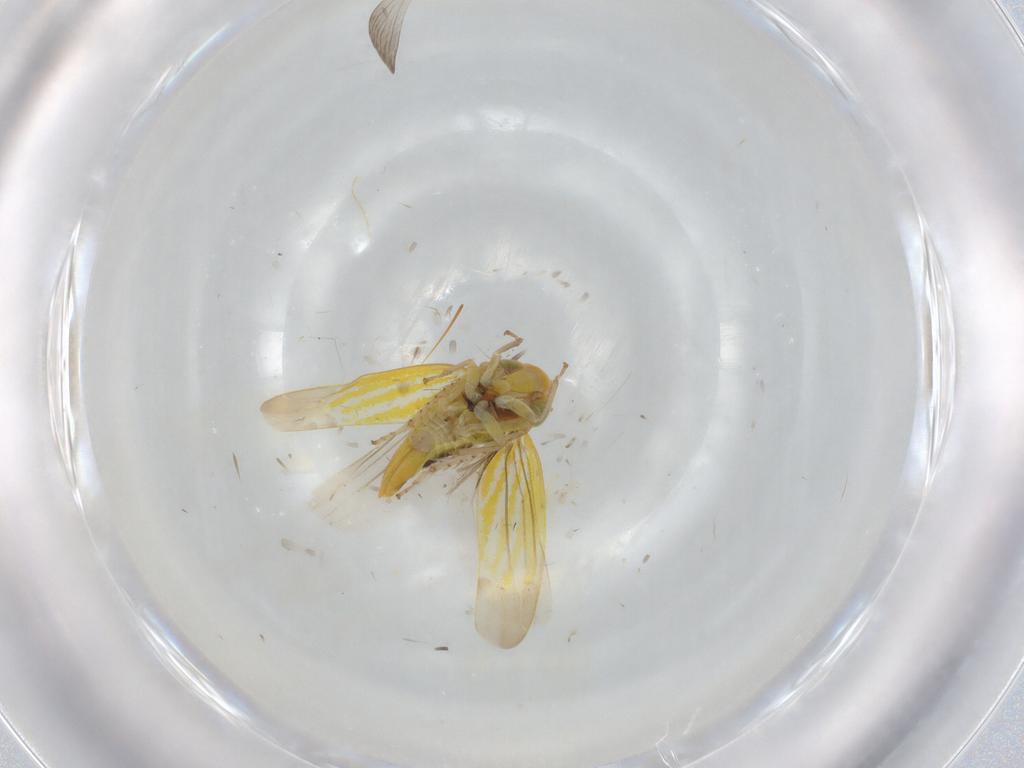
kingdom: Animalia
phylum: Arthropoda
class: Insecta
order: Hemiptera
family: Cicadellidae
